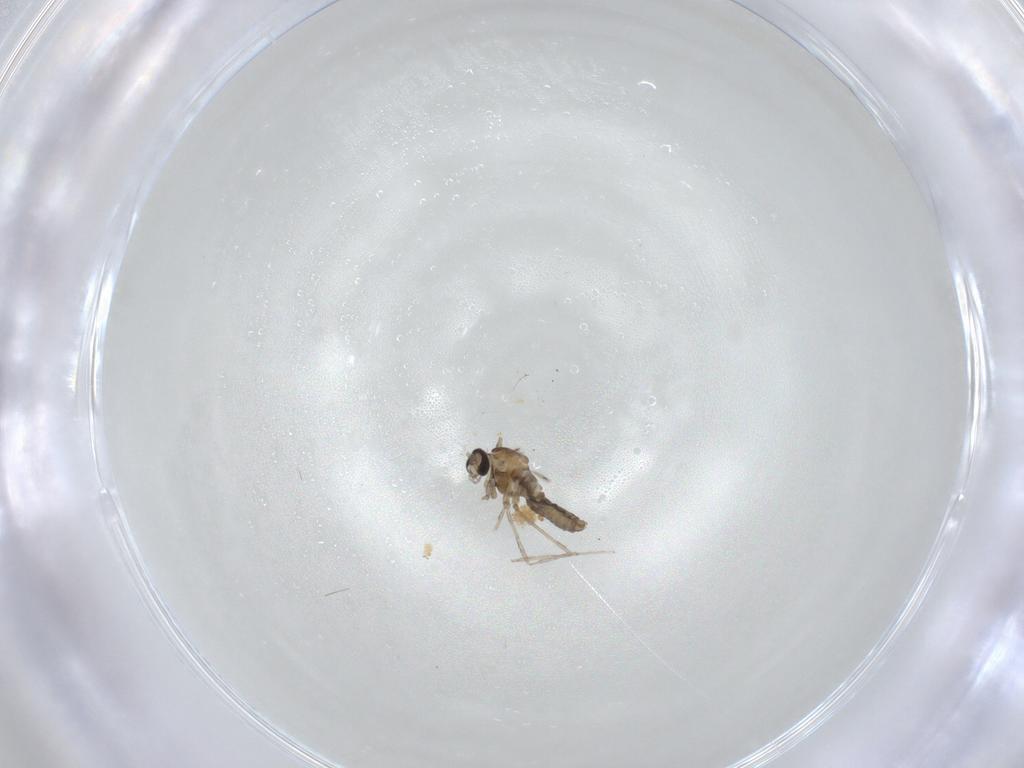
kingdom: Animalia
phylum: Arthropoda
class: Insecta
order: Diptera
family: Cecidomyiidae
